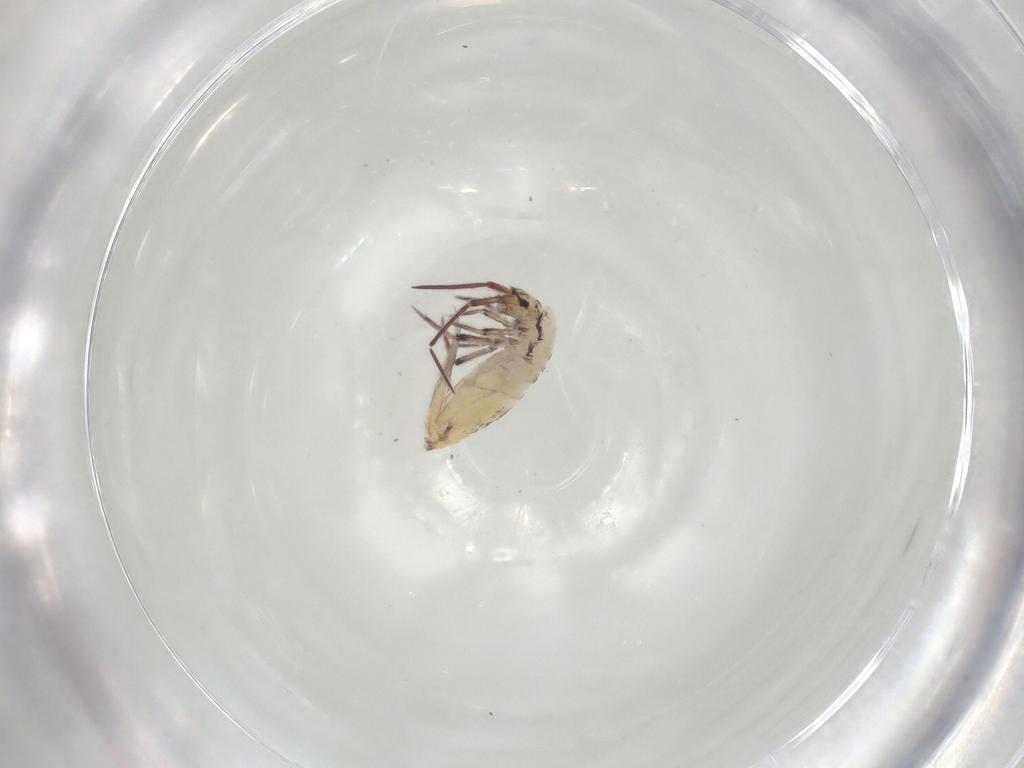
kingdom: Animalia
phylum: Arthropoda
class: Collembola
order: Entomobryomorpha
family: Entomobryidae
